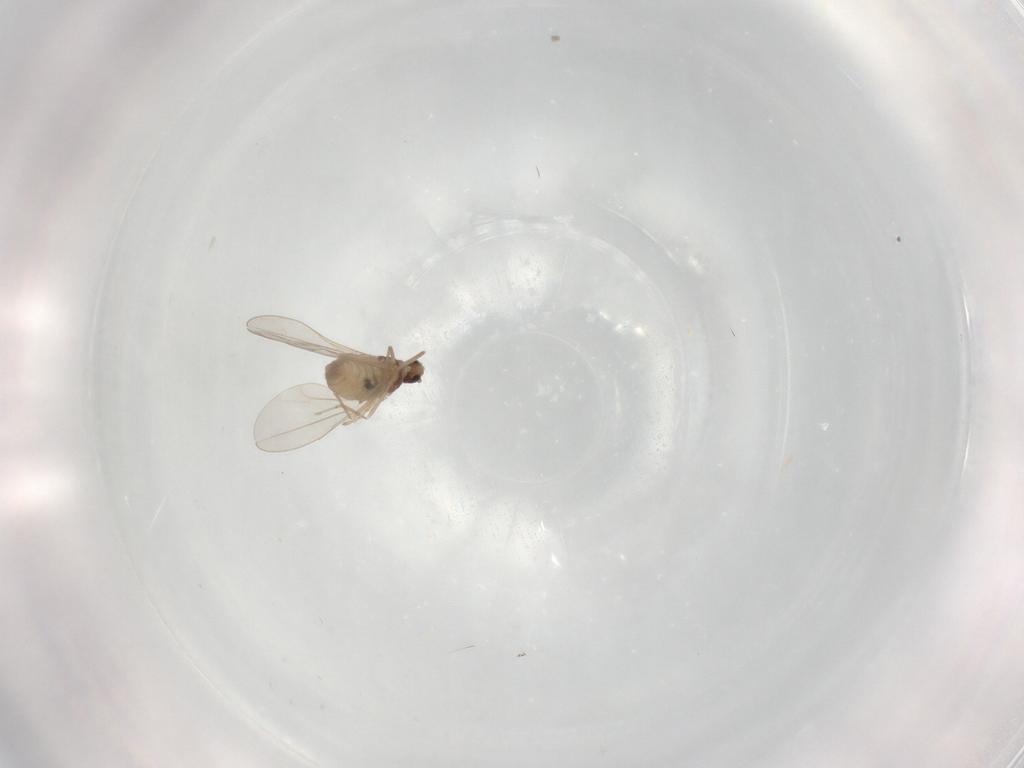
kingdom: Animalia
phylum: Arthropoda
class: Insecta
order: Diptera
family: Cecidomyiidae
